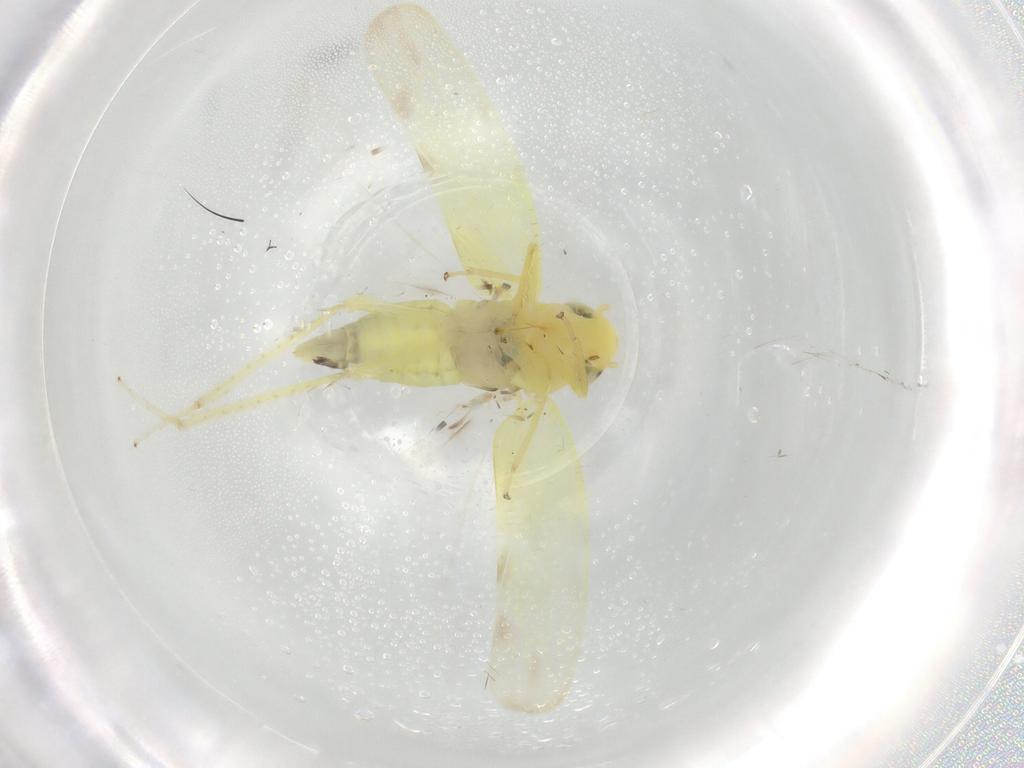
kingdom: Animalia
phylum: Arthropoda
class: Insecta
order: Hemiptera
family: Cicadellidae
